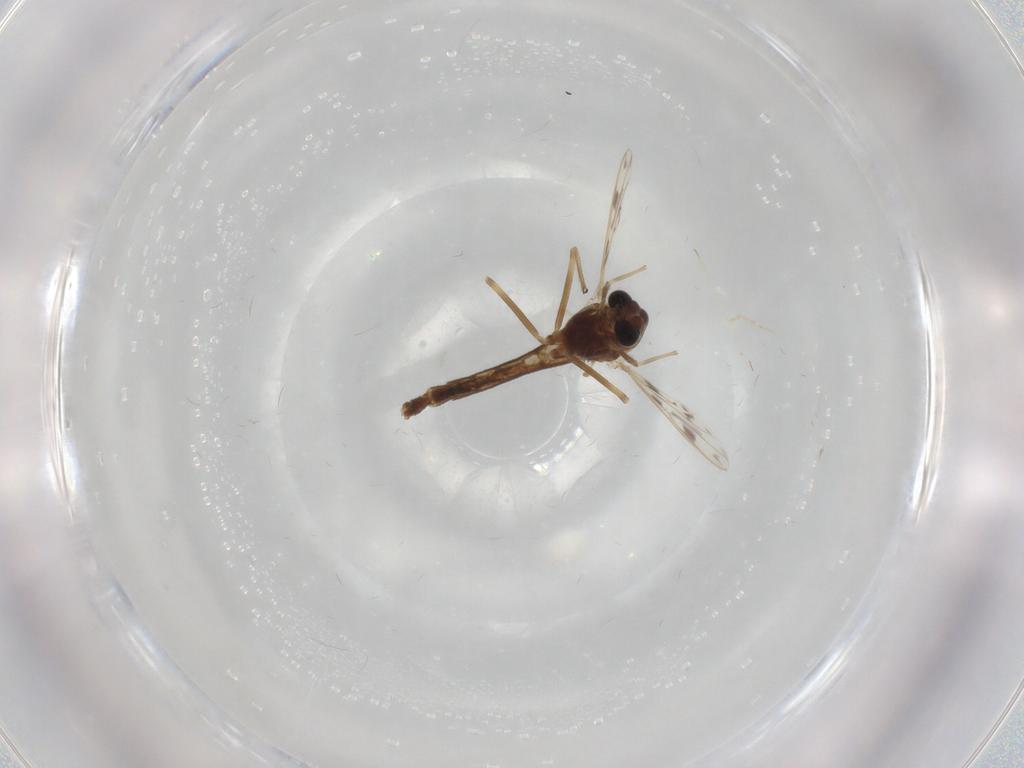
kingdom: Animalia
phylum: Arthropoda
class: Insecta
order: Diptera
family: Chironomidae
